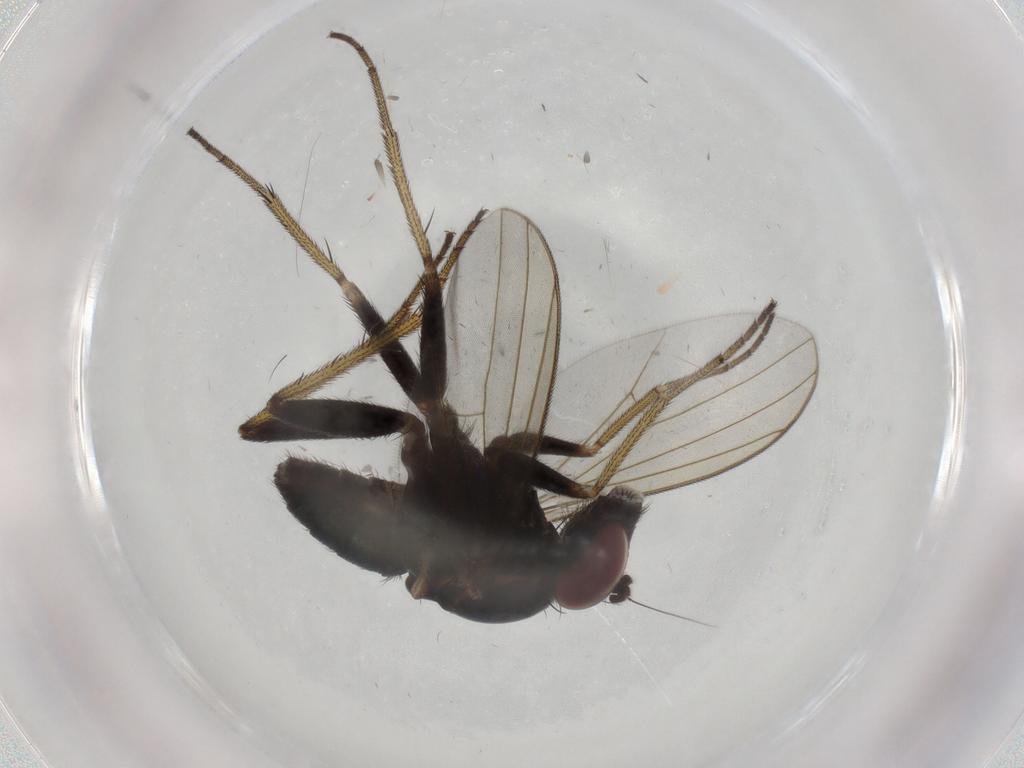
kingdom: Animalia
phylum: Arthropoda
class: Insecta
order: Diptera
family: Dolichopodidae
